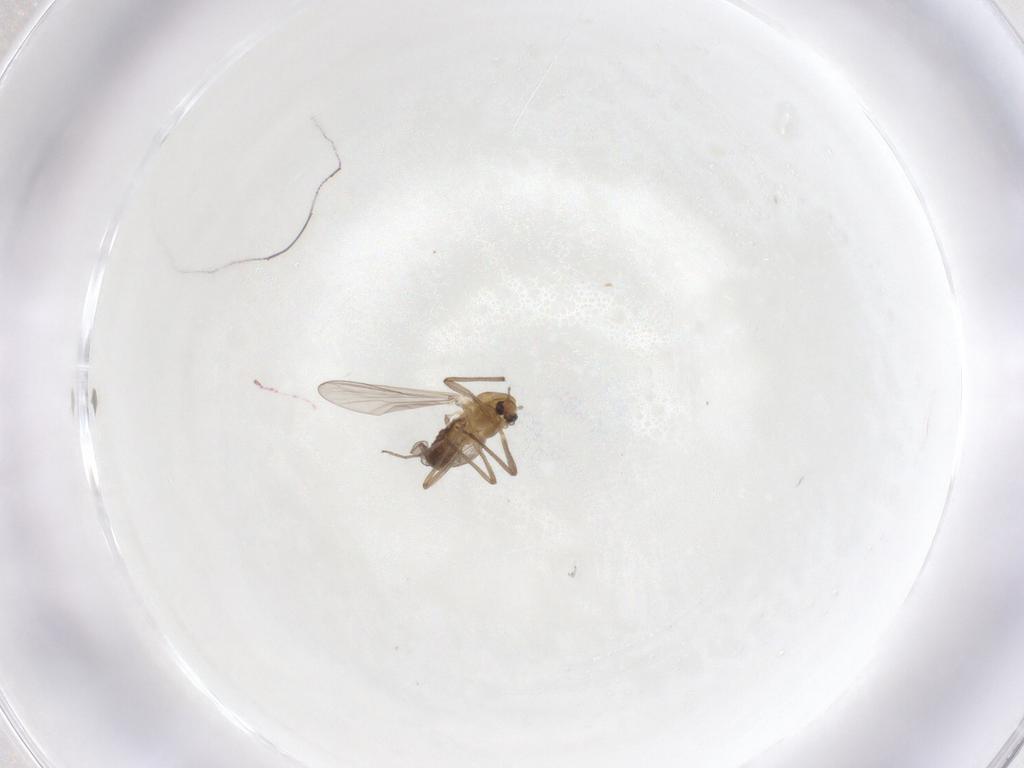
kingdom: Animalia
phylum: Arthropoda
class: Insecta
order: Diptera
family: Chironomidae
